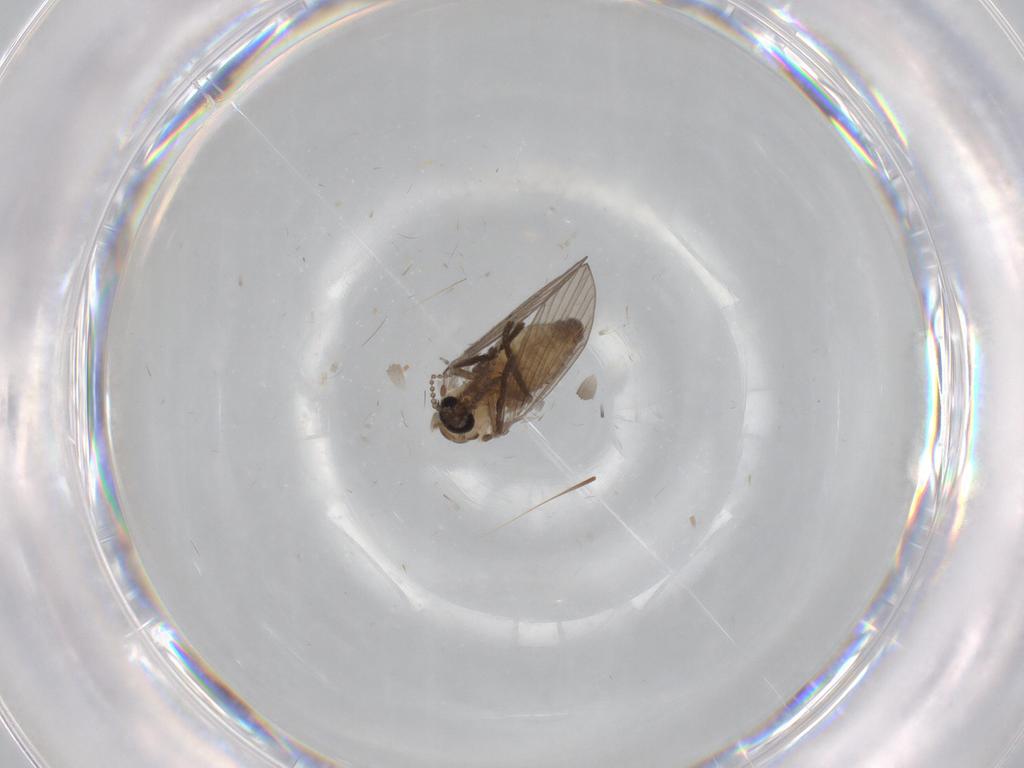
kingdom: Animalia
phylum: Arthropoda
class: Insecta
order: Diptera
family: Psychodidae
